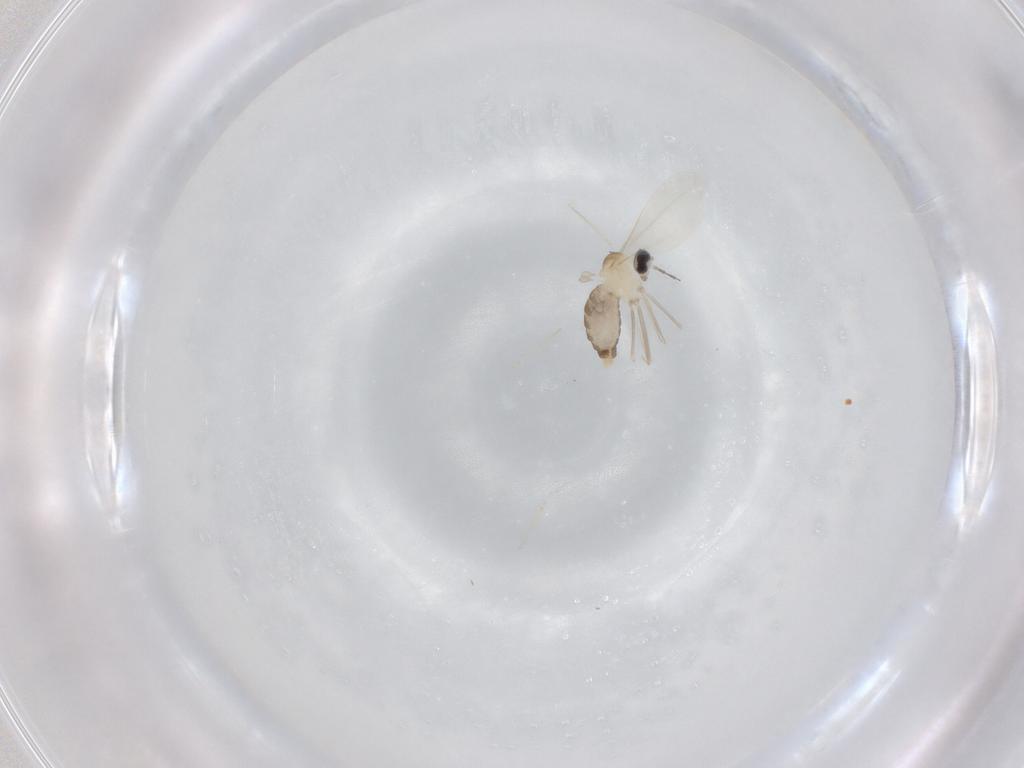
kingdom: Animalia
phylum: Arthropoda
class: Insecta
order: Diptera
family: Cecidomyiidae
